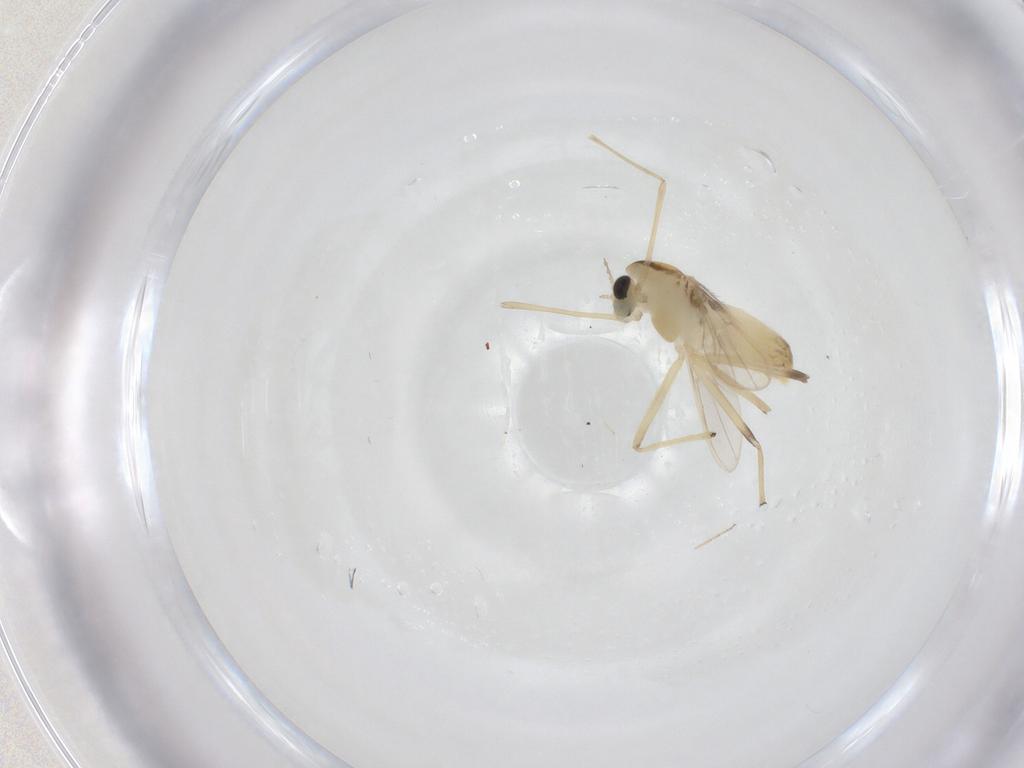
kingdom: Animalia
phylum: Arthropoda
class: Insecta
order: Diptera
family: Chironomidae
